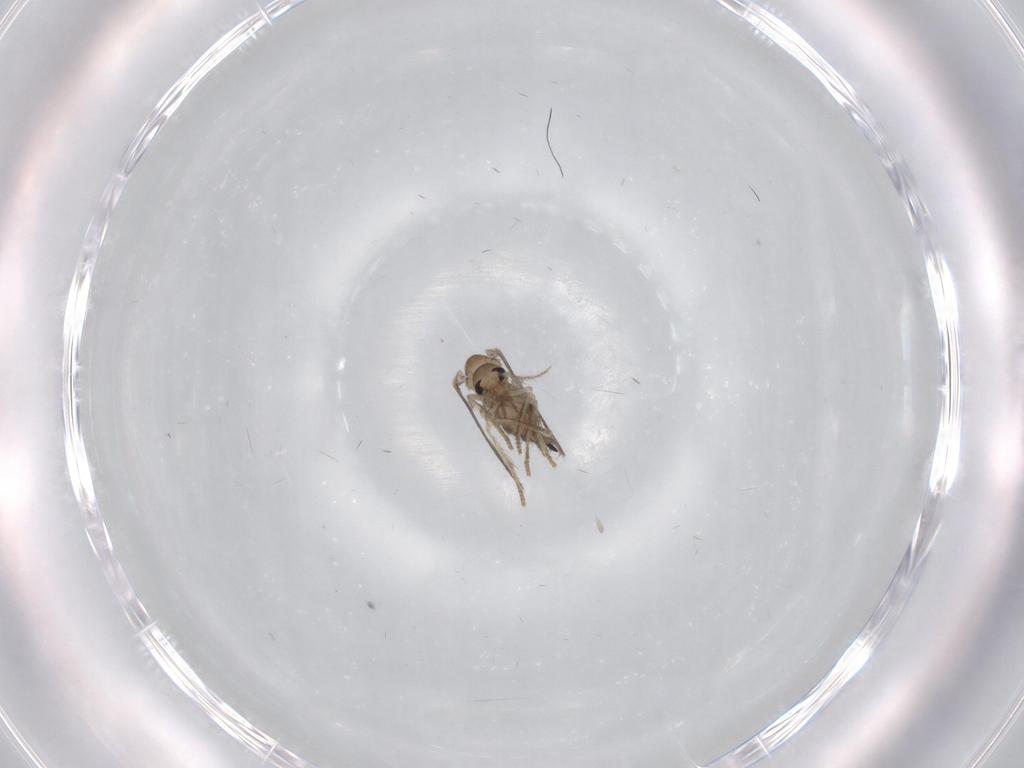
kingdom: Animalia
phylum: Arthropoda
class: Insecta
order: Diptera
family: Psychodidae
